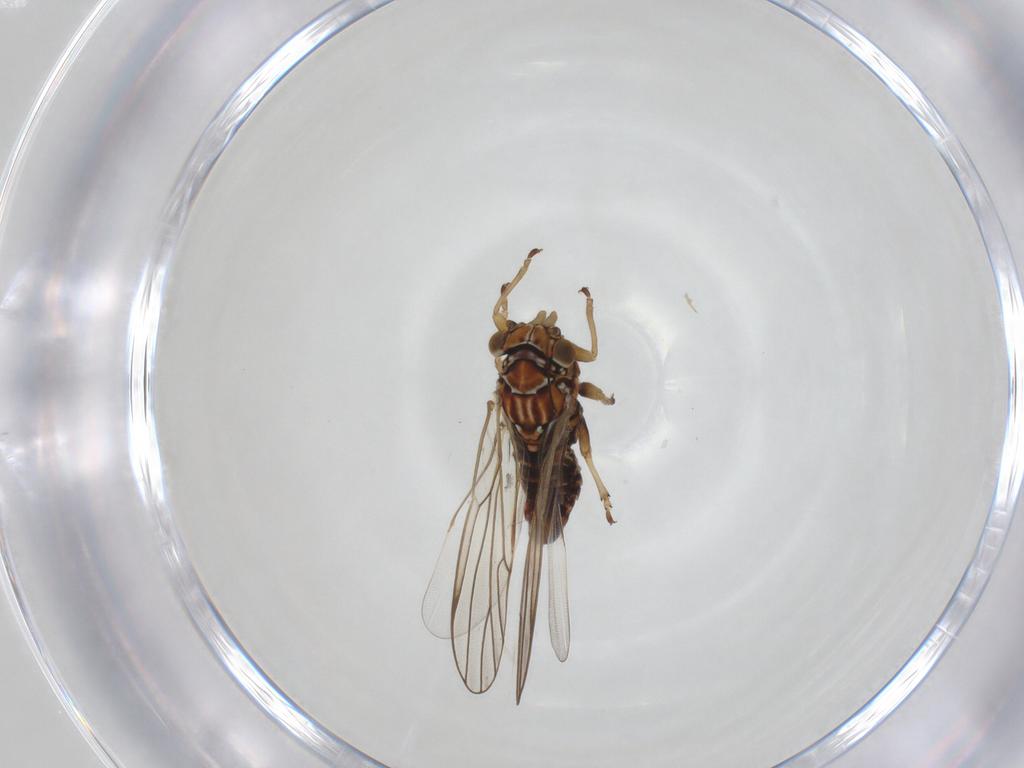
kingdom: Animalia
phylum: Arthropoda
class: Insecta
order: Hemiptera
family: Psyllidae
